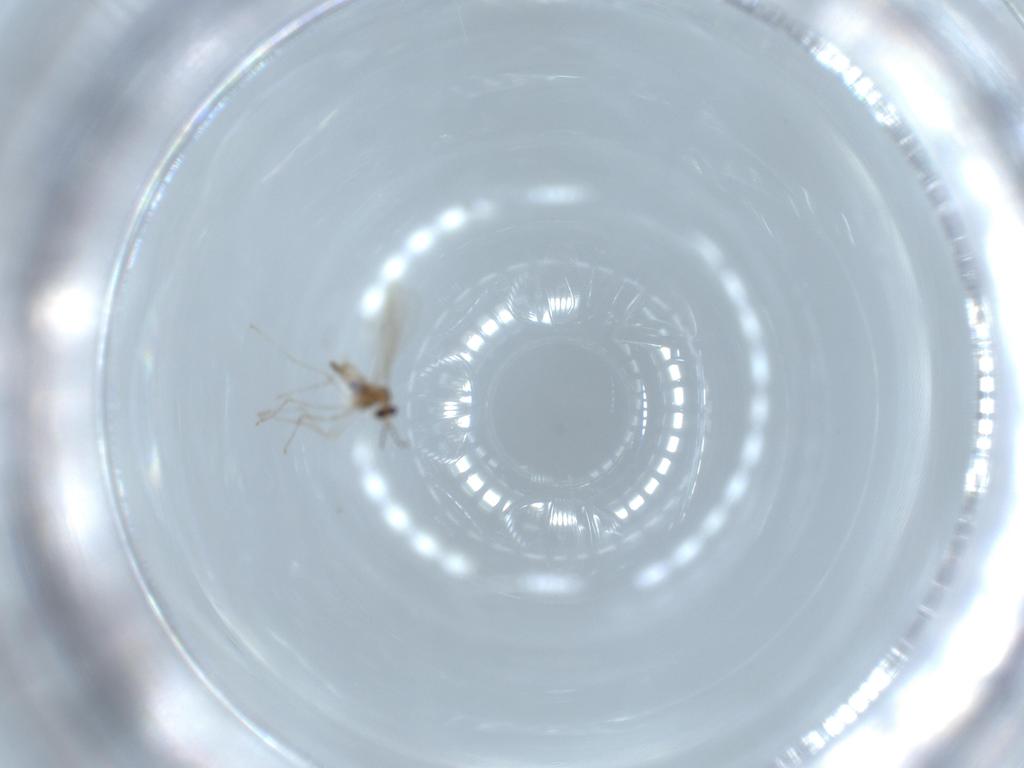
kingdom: Animalia
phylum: Arthropoda
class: Insecta
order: Diptera
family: Cecidomyiidae
